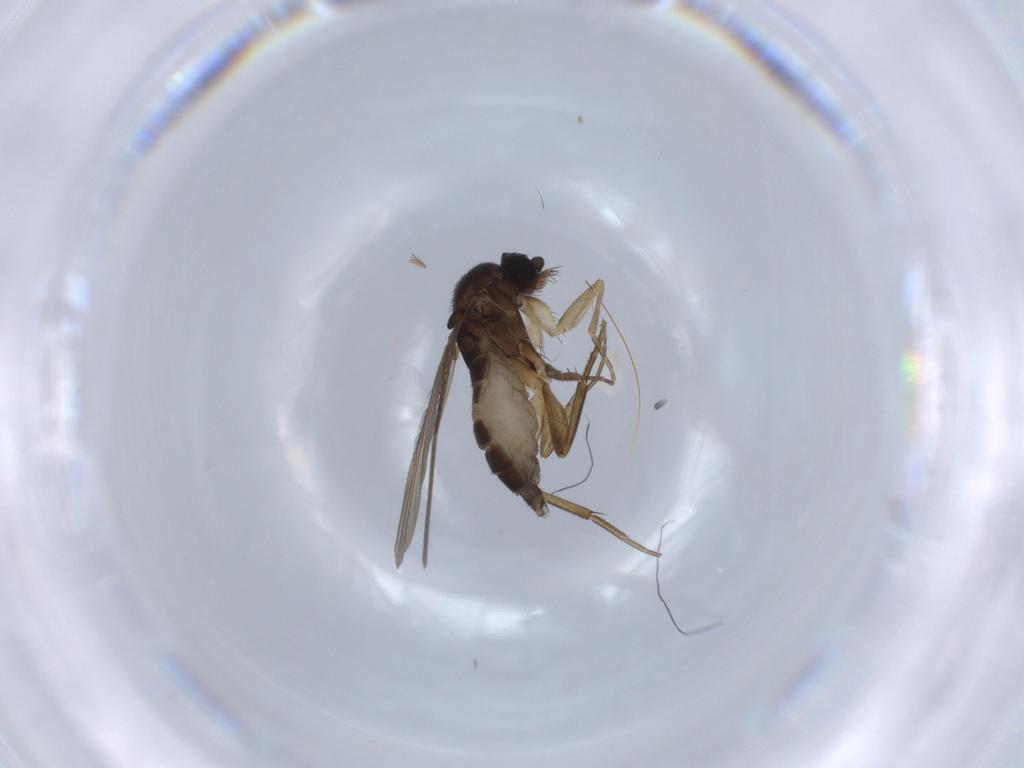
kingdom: Animalia
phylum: Arthropoda
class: Insecta
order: Diptera
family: Phoridae
